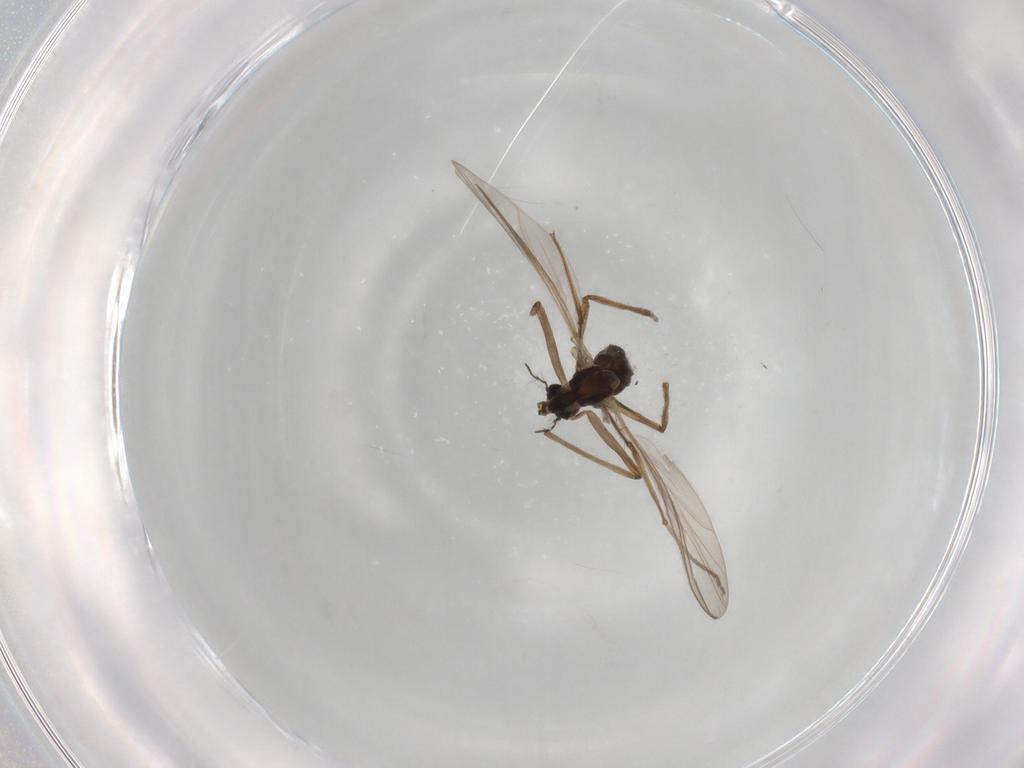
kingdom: Animalia
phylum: Arthropoda
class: Insecta
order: Diptera
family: Chironomidae
